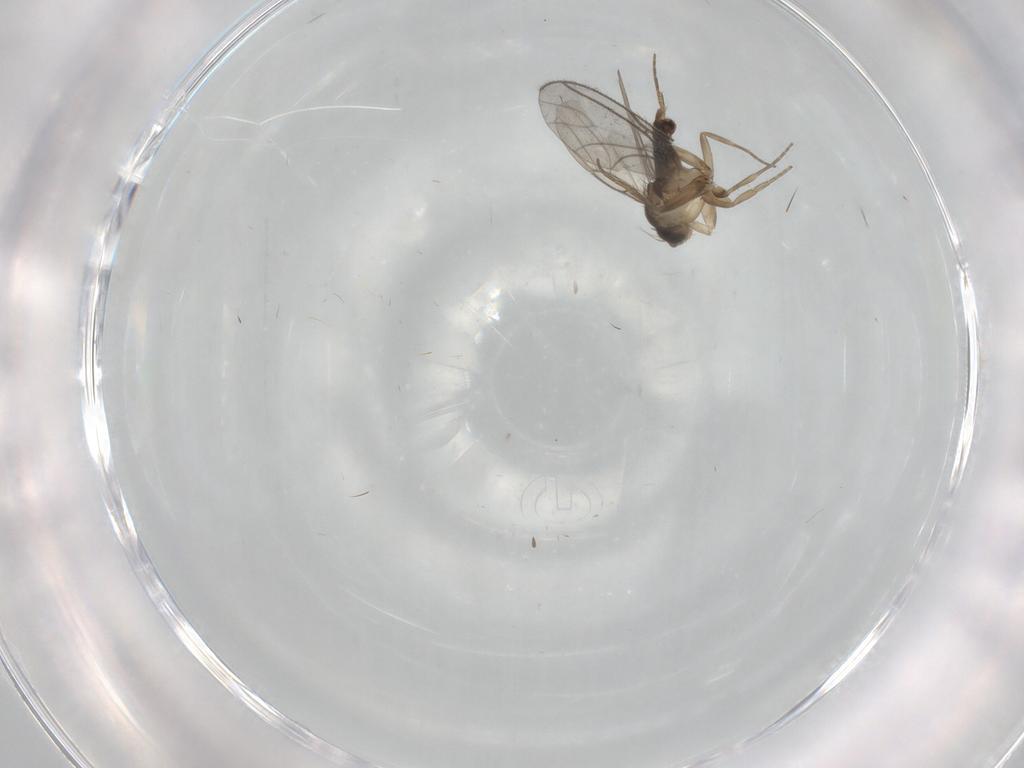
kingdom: Animalia
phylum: Arthropoda
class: Insecta
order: Diptera
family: Phoridae
